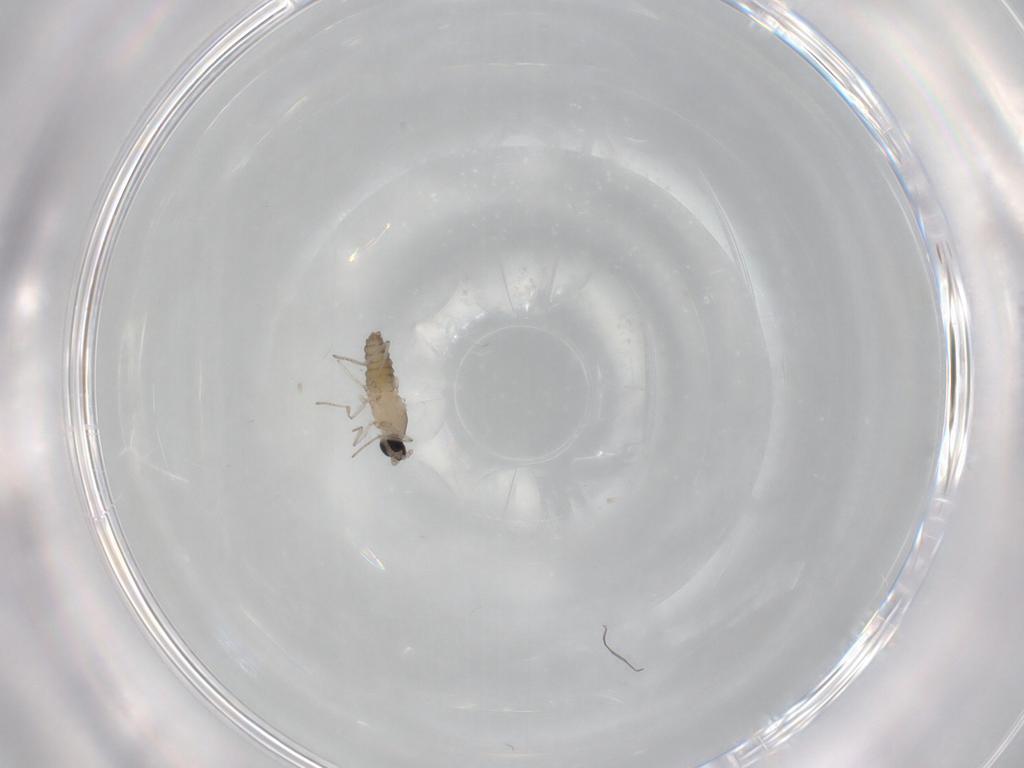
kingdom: Animalia
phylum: Arthropoda
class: Insecta
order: Diptera
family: Cecidomyiidae
